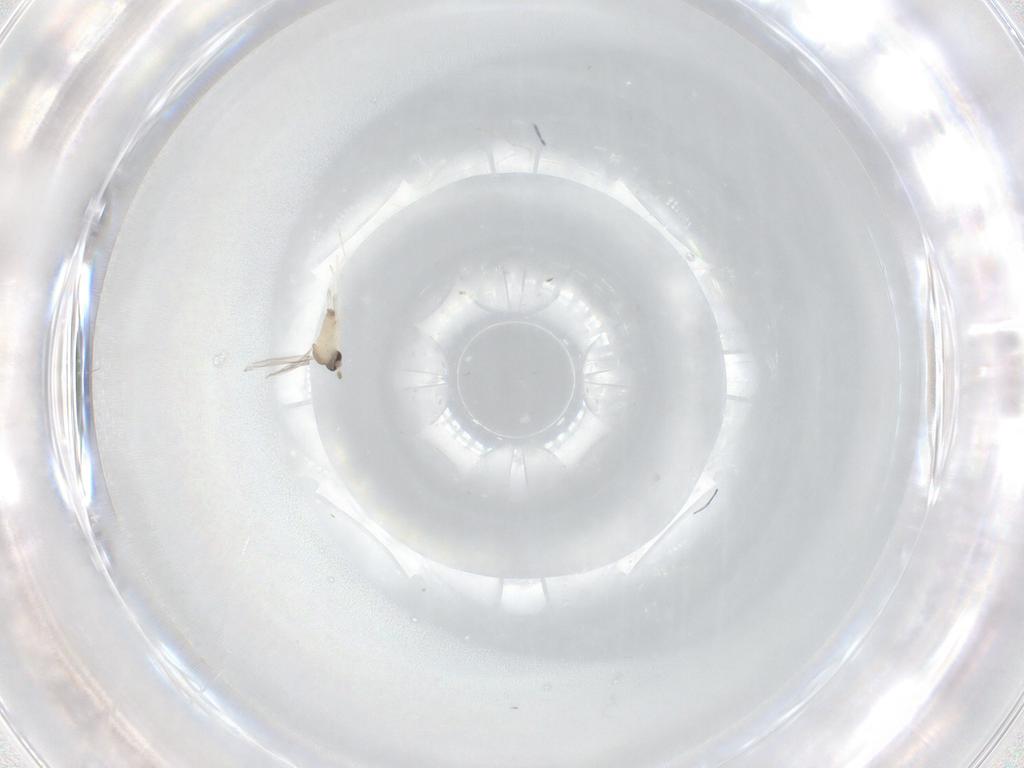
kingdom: Animalia
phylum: Arthropoda
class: Insecta
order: Diptera
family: Cecidomyiidae
